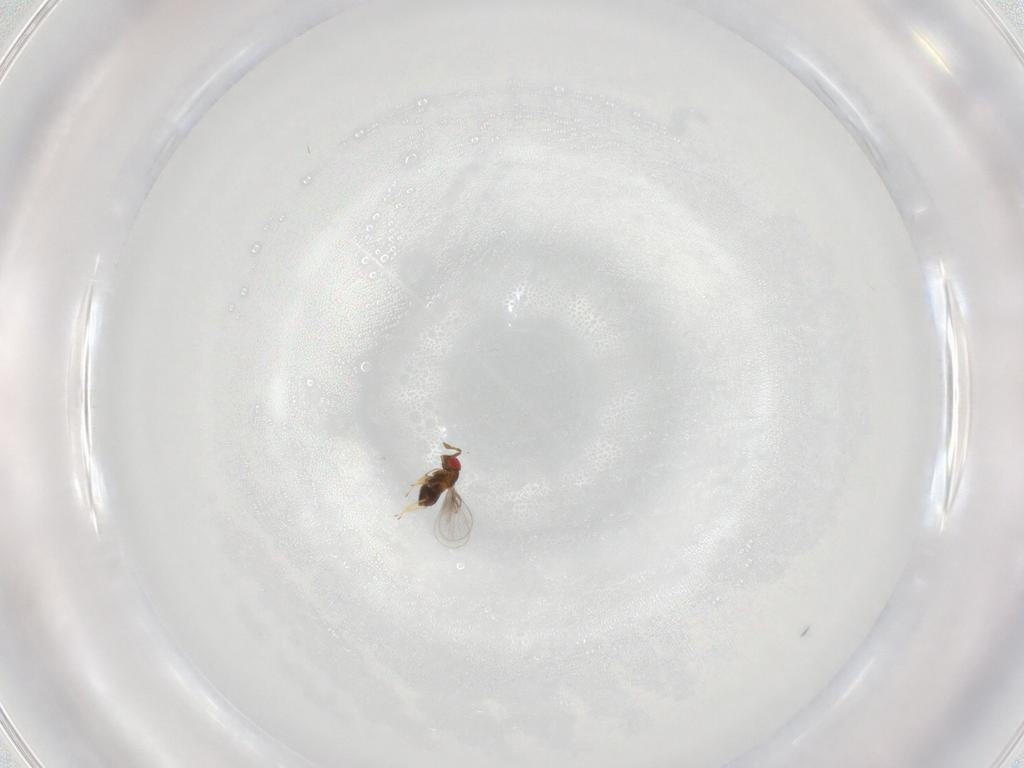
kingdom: Animalia
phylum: Arthropoda
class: Insecta
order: Hymenoptera
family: Trichogrammatidae
